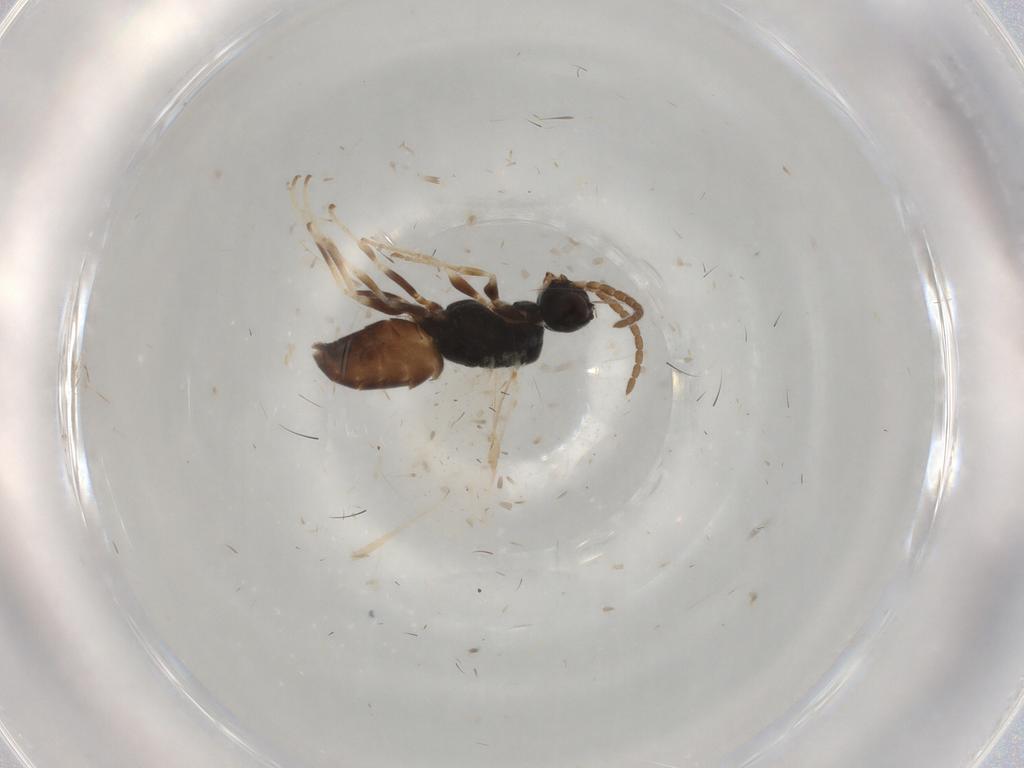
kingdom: Animalia
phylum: Arthropoda
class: Insecta
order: Hymenoptera
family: Dryinidae
